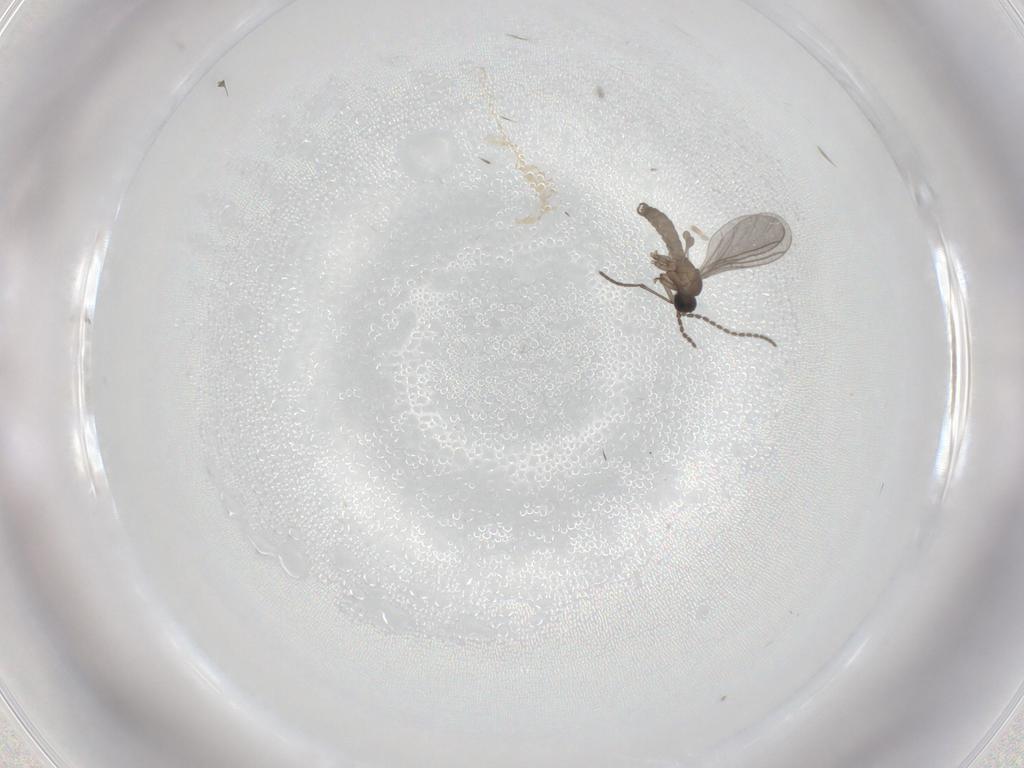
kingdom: Animalia
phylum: Arthropoda
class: Insecta
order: Diptera
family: Sciaridae
